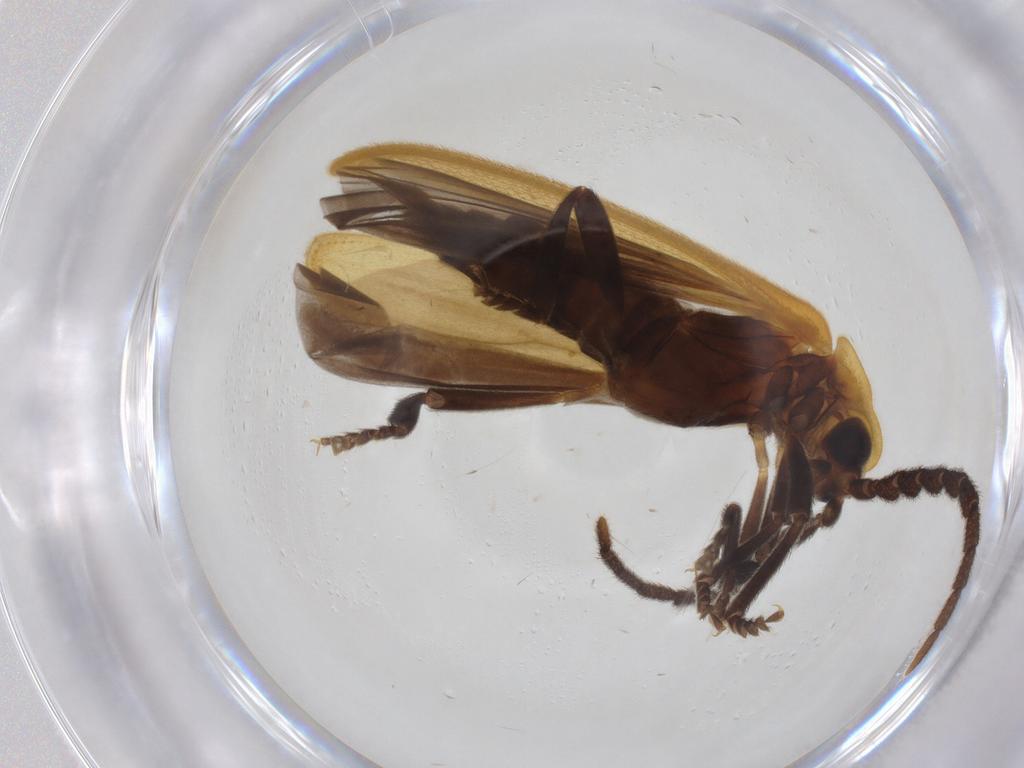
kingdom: Animalia
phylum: Arthropoda
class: Insecta
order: Coleoptera
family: Lycidae
